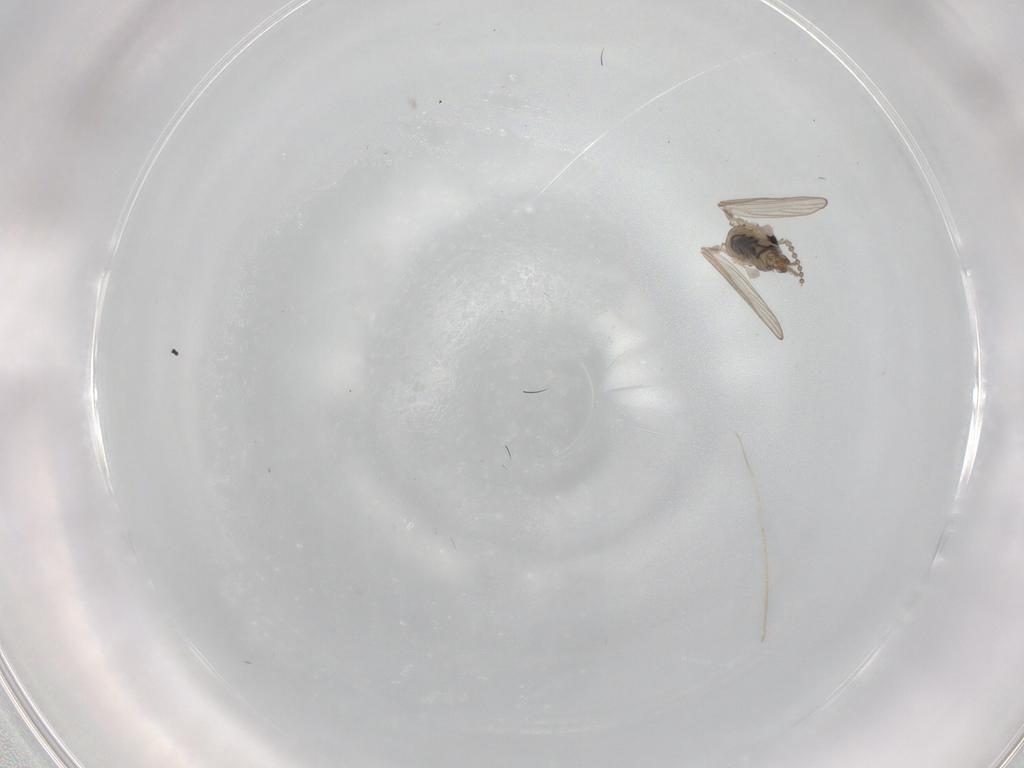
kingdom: Animalia
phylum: Arthropoda
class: Insecta
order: Diptera
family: Psychodidae
